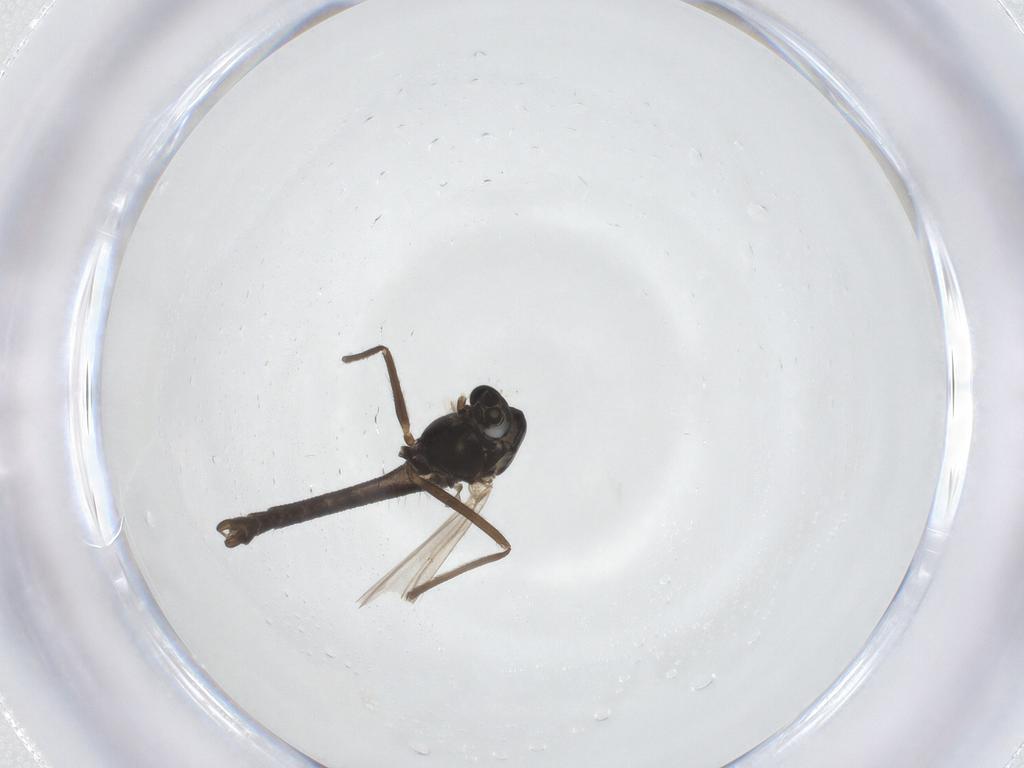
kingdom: Animalia
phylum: Arthropoda
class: Insecta
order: Diptera
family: Chironomidae
